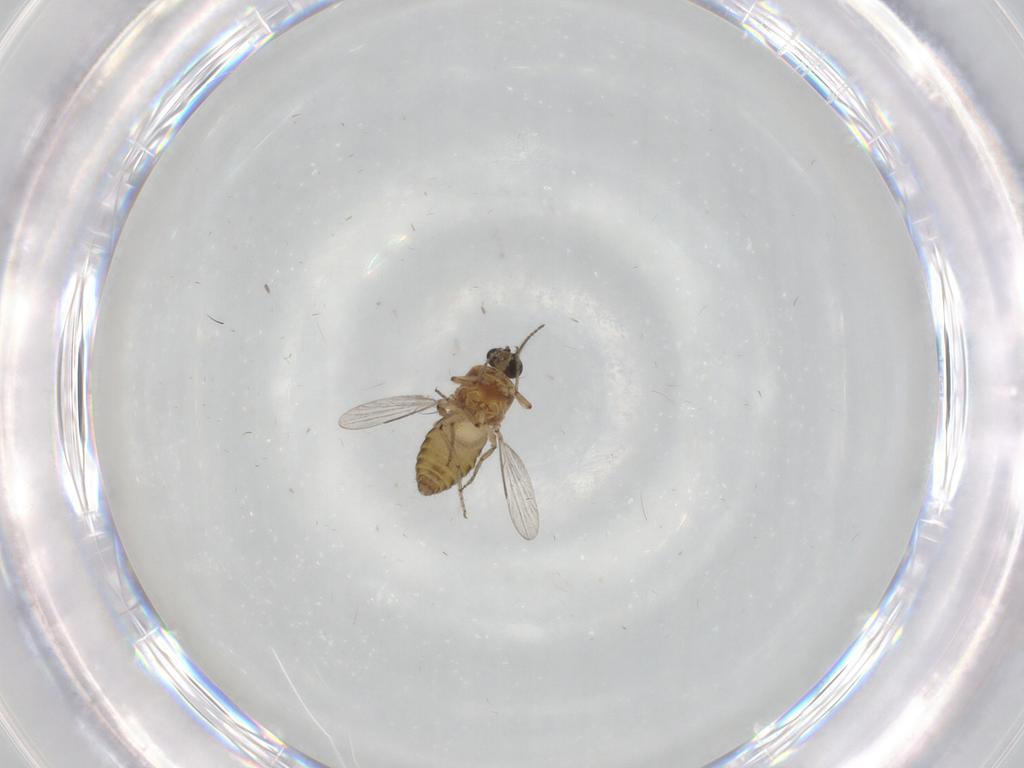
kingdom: Animalia
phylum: Arthropoda
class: Insecta
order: Diptera
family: Ceratopogonidae
